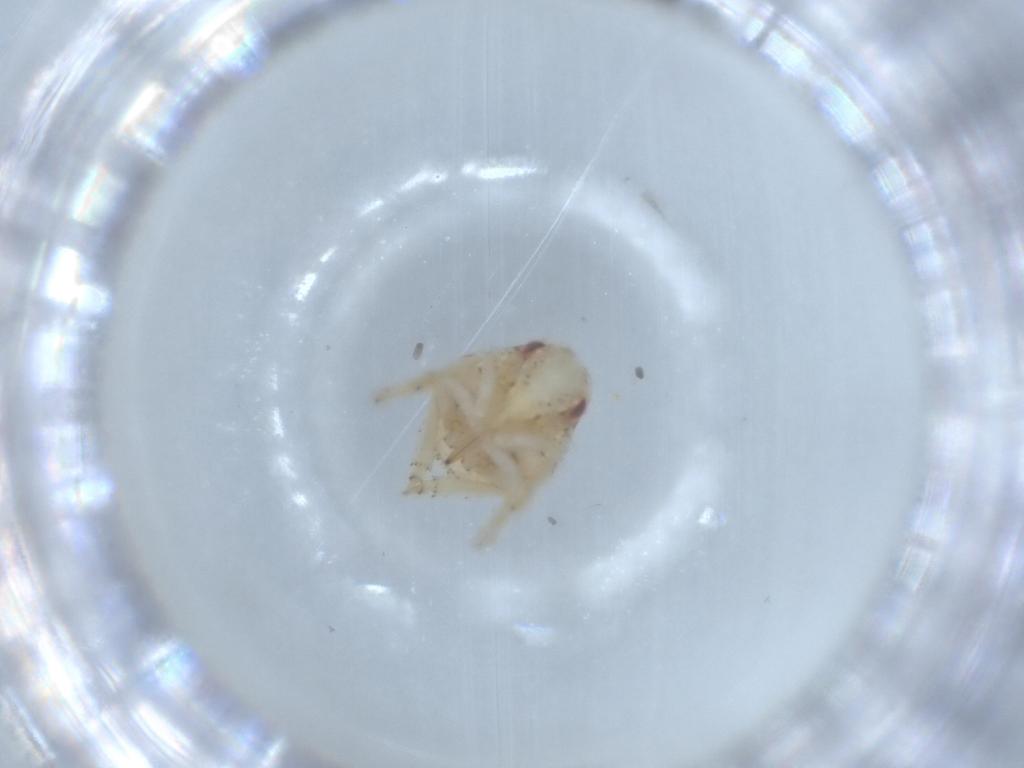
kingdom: Animalia
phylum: Arthropoda
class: Insecta
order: Hemiptera
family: Acanaloniidae
